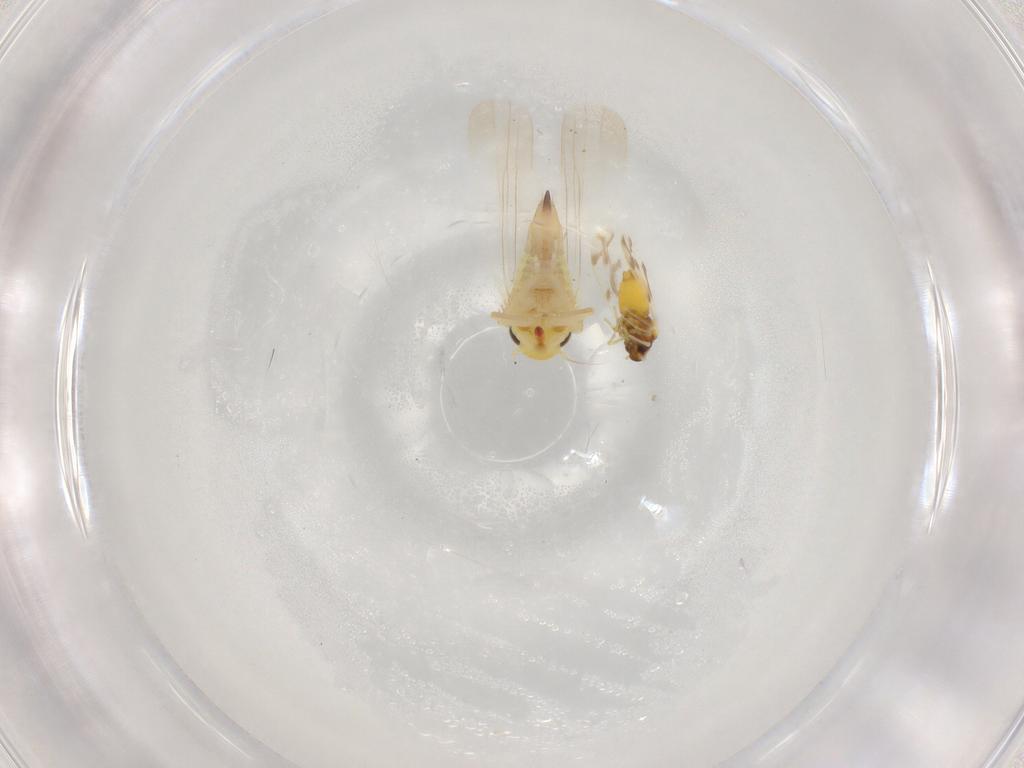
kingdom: Animalia
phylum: Arthropoda
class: Insecta
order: Hemiptera
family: Cicadellidae
